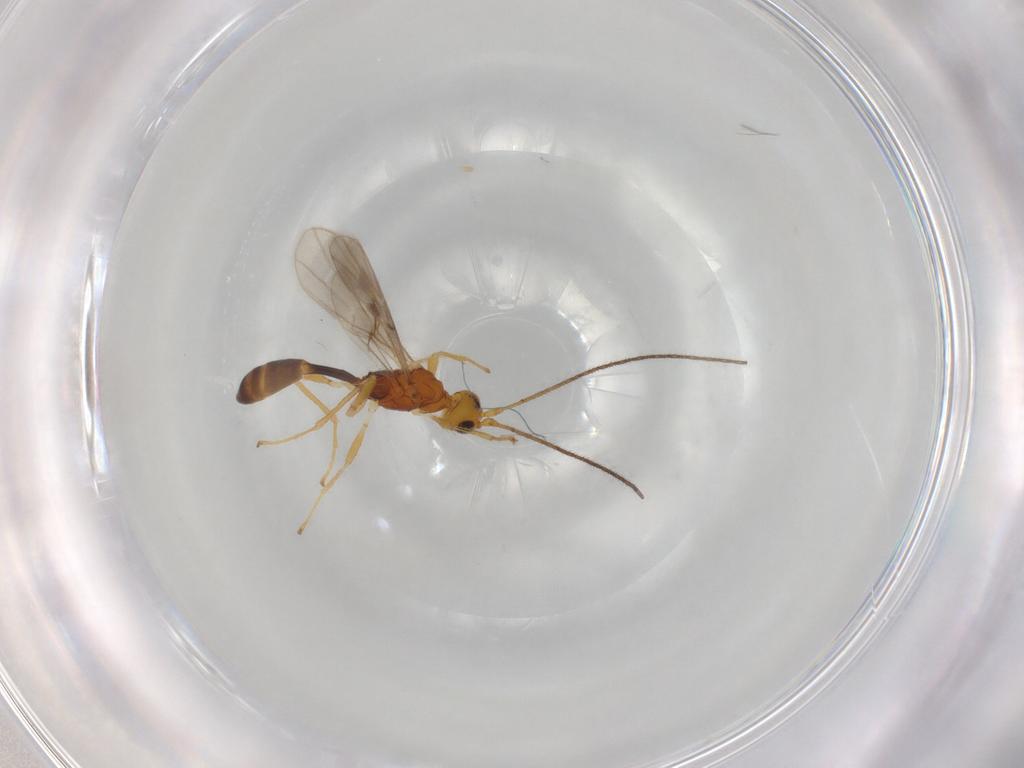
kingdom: Animalia
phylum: Arthropoda
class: Insecta
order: Hymenoptera
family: Braconidae
